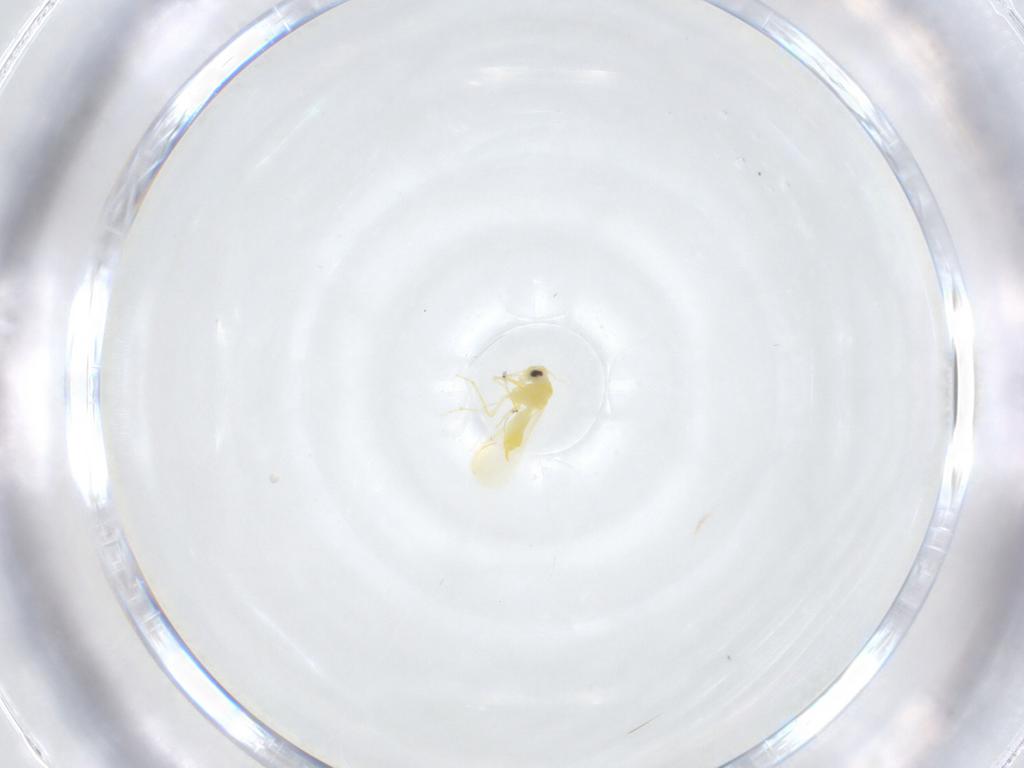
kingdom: Animalia
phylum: Arthropoda
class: Insecta
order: Hemiptera
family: Aleyrodidae
